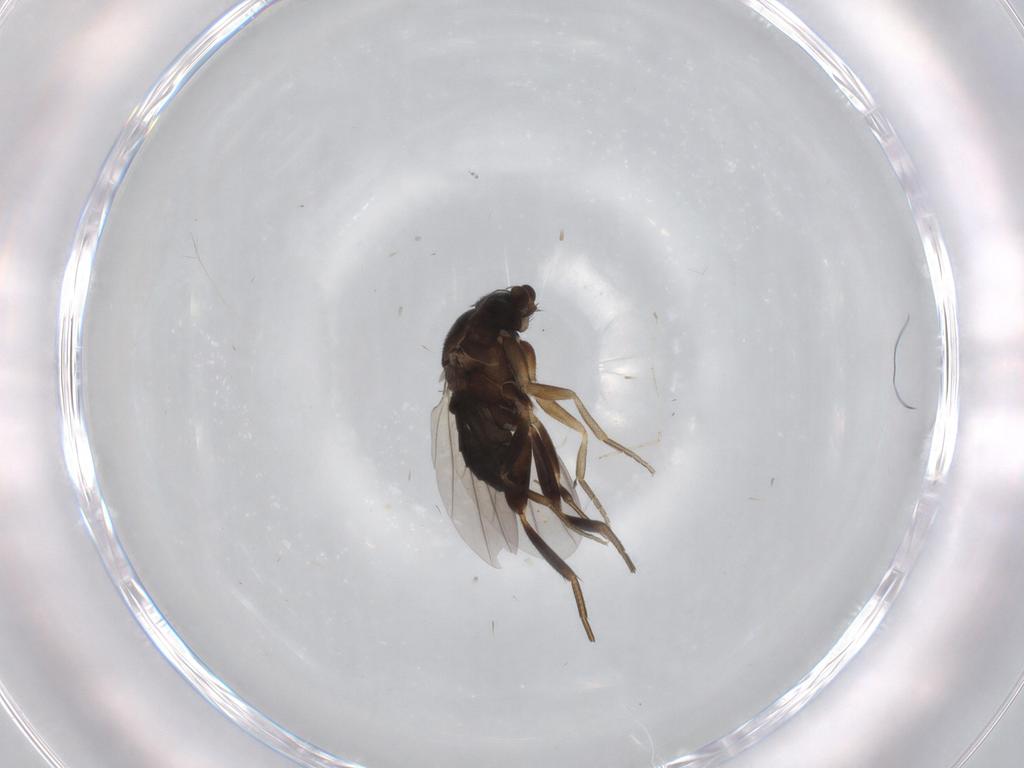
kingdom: Animalia
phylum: Arthropoda
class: Insecta
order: Diptera
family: Cecidomyiidae
